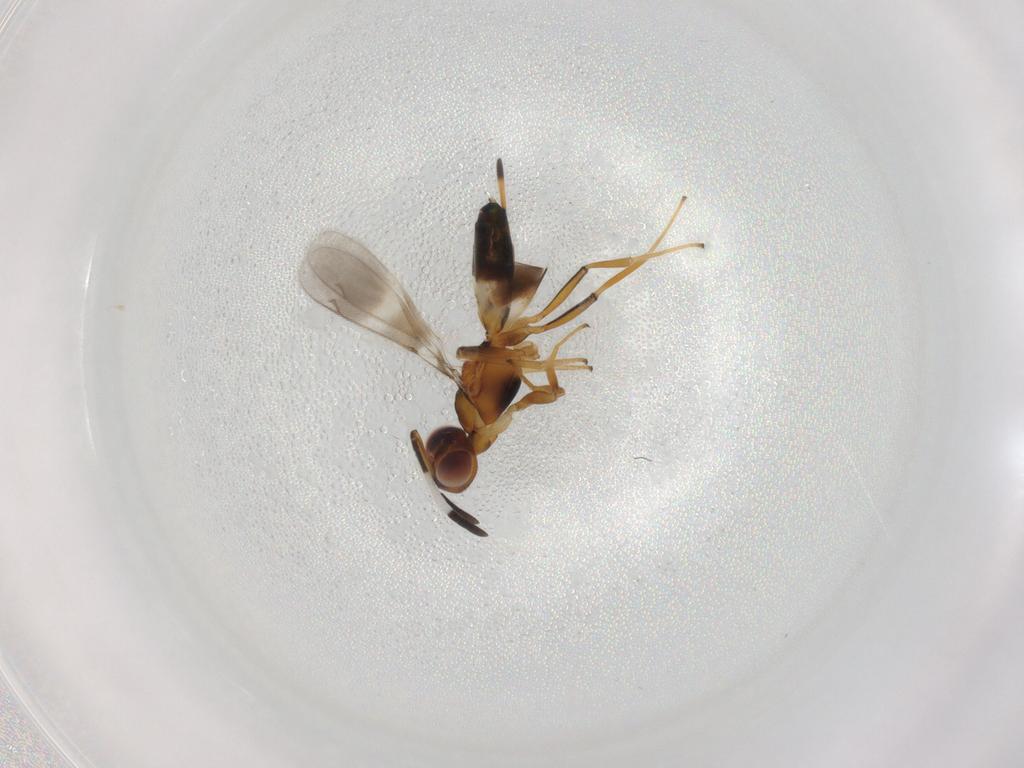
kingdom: Animalia
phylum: Arthropoda
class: Insecta
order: Hymenoptera
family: Eupelmidae
